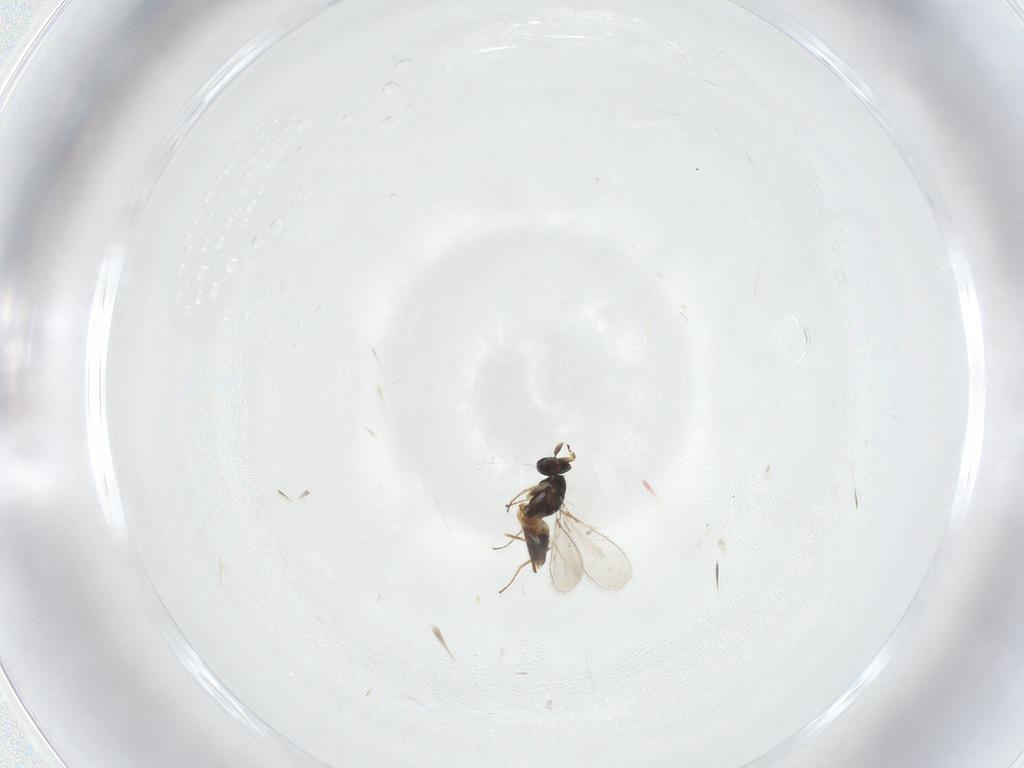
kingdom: Animalia
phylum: Arthropoda
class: Insecta
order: Hymenoptera
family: Mymaridae
